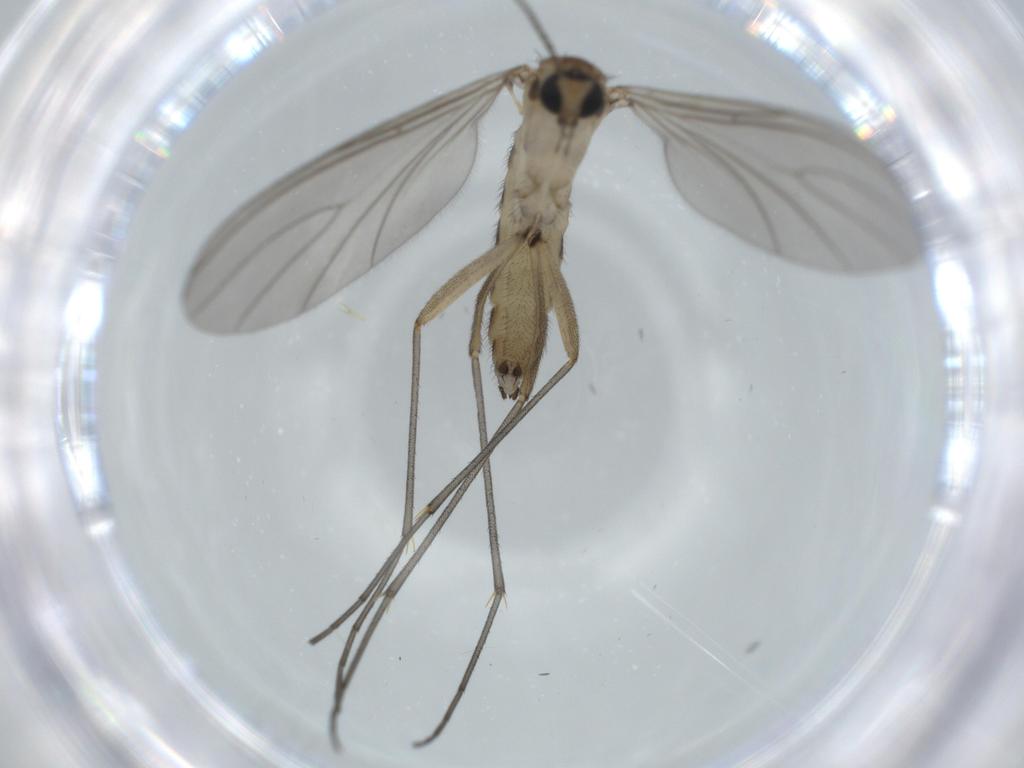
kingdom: Animalia
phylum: Arthropoda
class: Insecta
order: Diptera
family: Sciaridae
